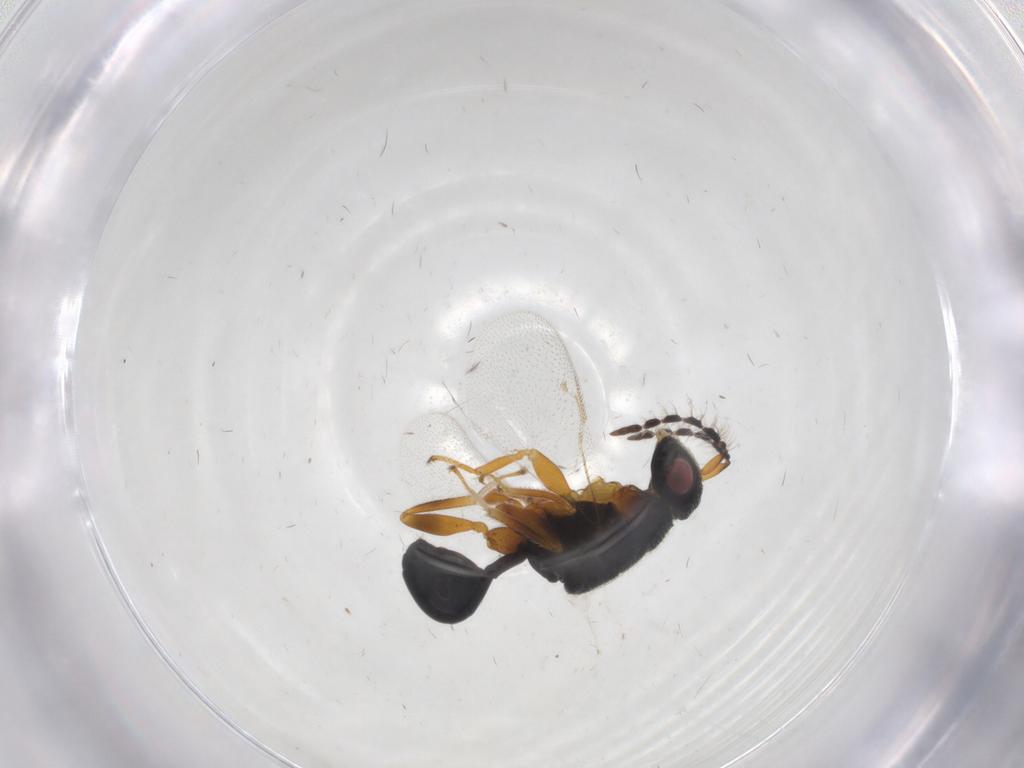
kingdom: Animalia
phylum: Arthropoda
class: Insecta
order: Hymenoptera
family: Eurytomidae
